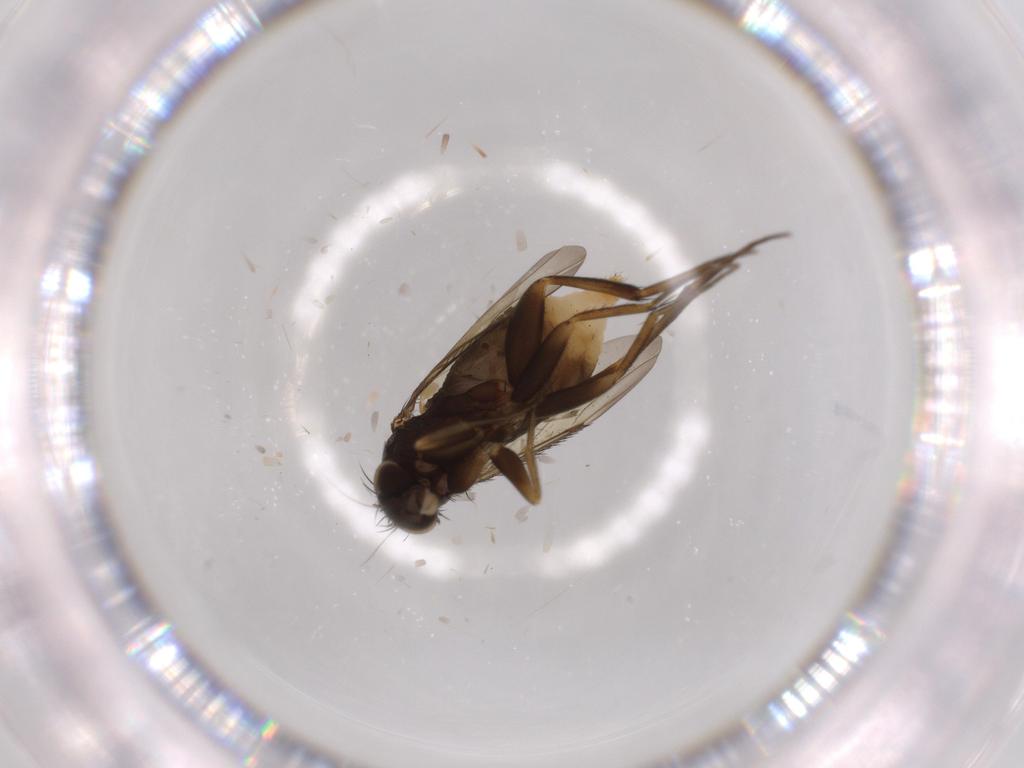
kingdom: Animalia
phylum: Arthropoda
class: Insecta
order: Diptera
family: Phoridae
